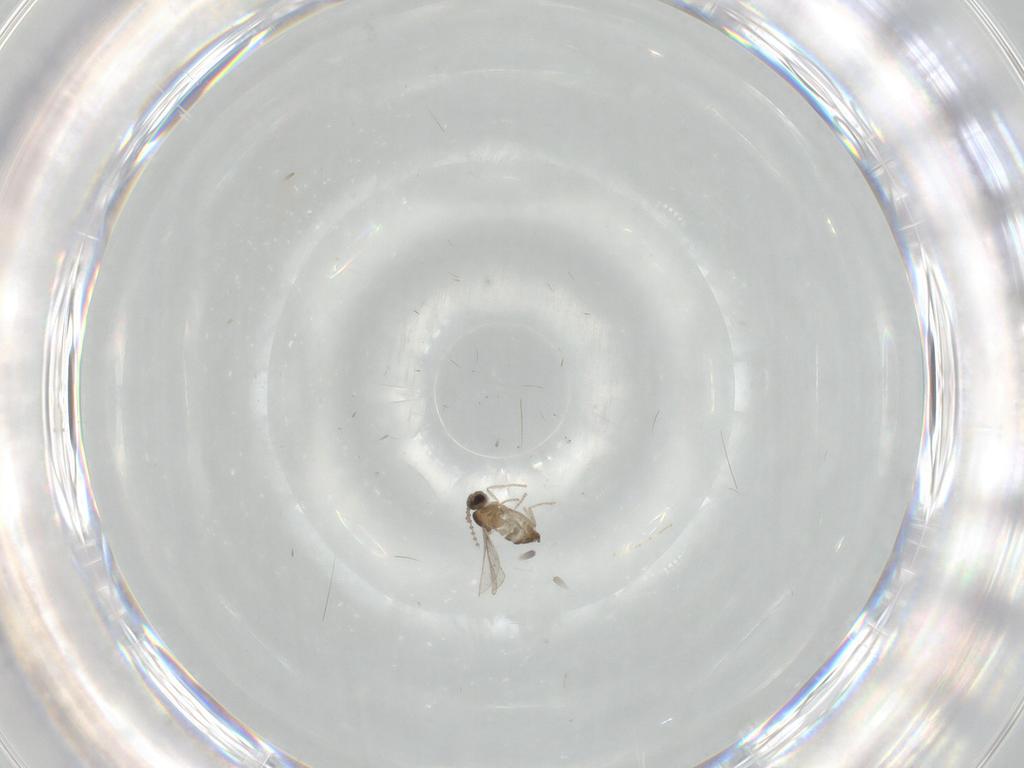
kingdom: Animalia
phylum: Arthropoda
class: Insecta
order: Diptera
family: Cecidomyiidae
